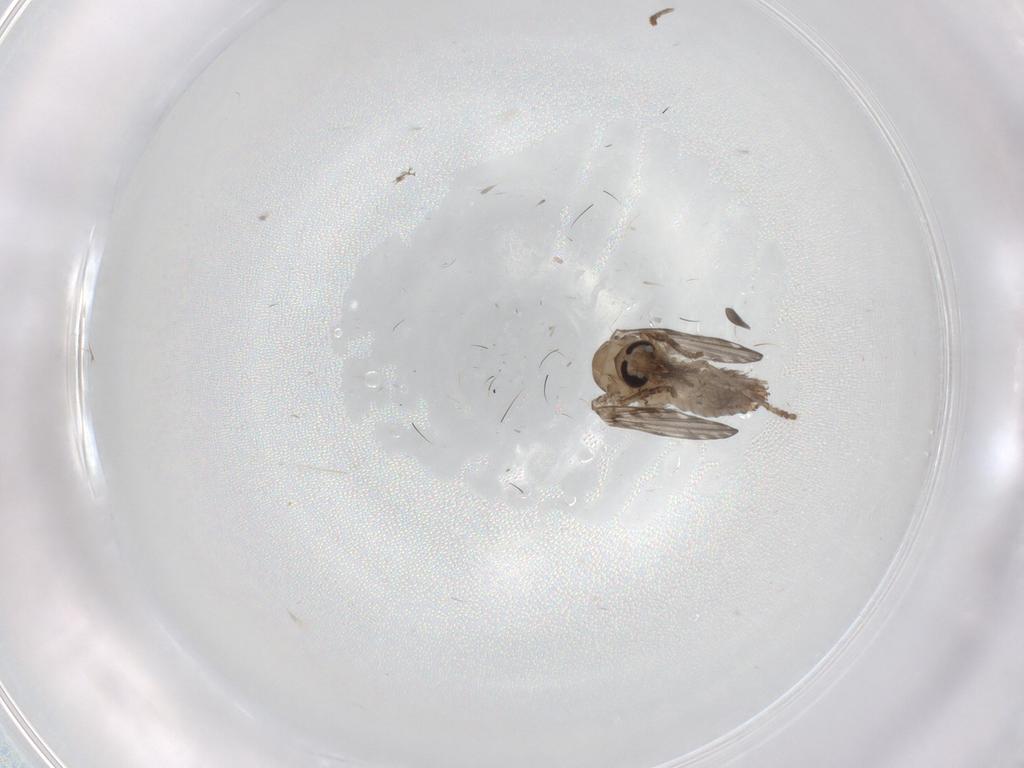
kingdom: Animalia
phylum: Arthropoda
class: Insecta
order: Diptera
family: Psychodidae
